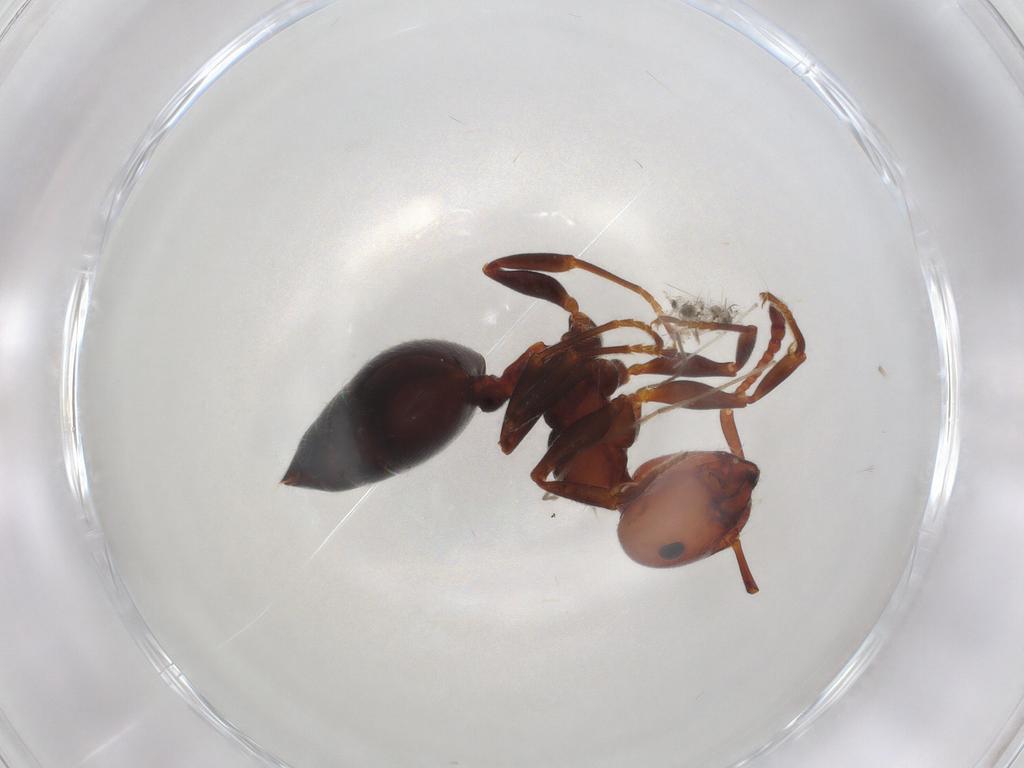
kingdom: Animalia
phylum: Arthropoda
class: Insecta
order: Hymenoptera
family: Formicidae
